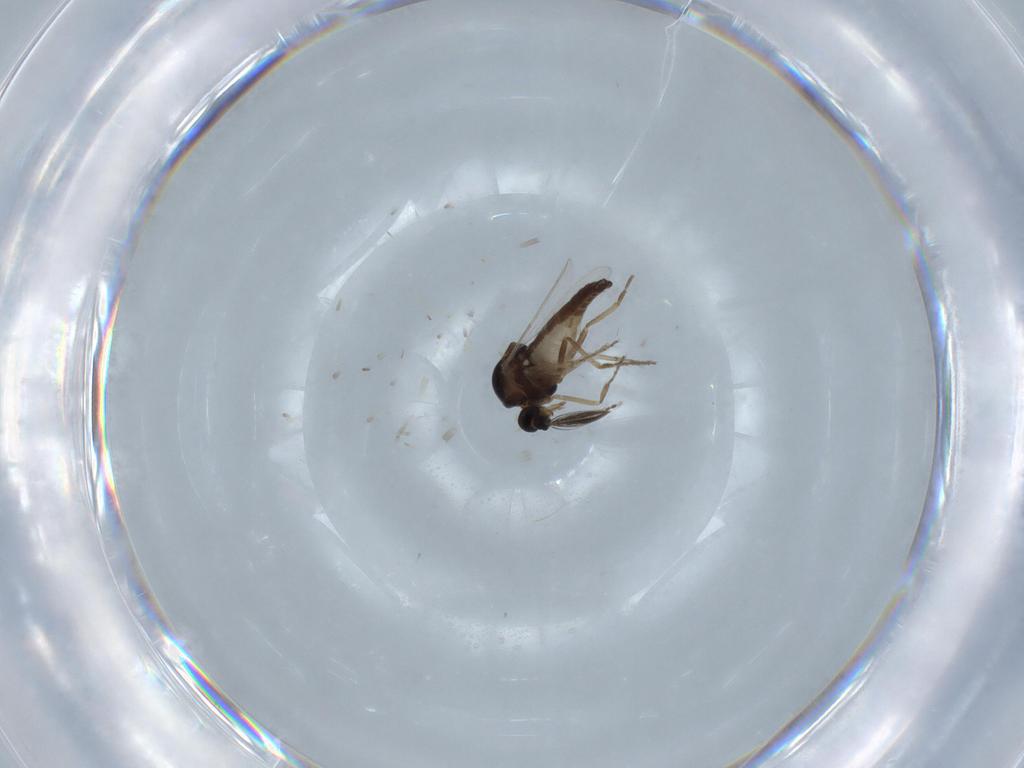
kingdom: Animalia
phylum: Arthropoda
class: Insecta
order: Diptera
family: Ceratopogonidae
